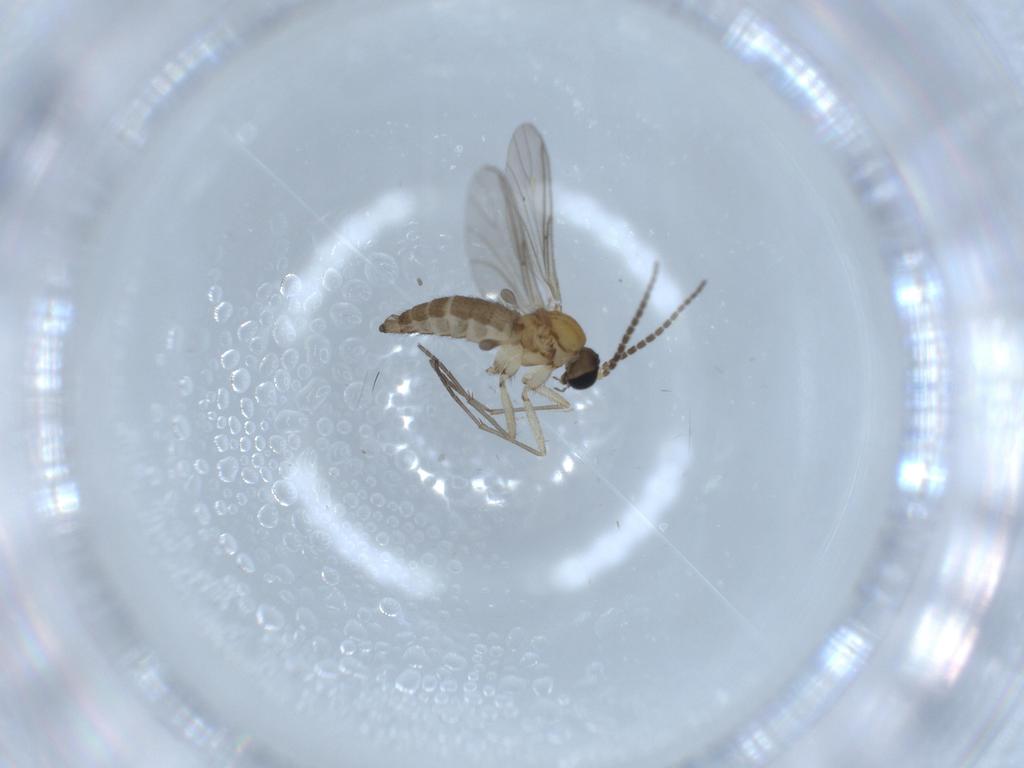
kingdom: Animalia
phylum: Arthropoda
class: Insecta
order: Diptera
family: Sciaridae
